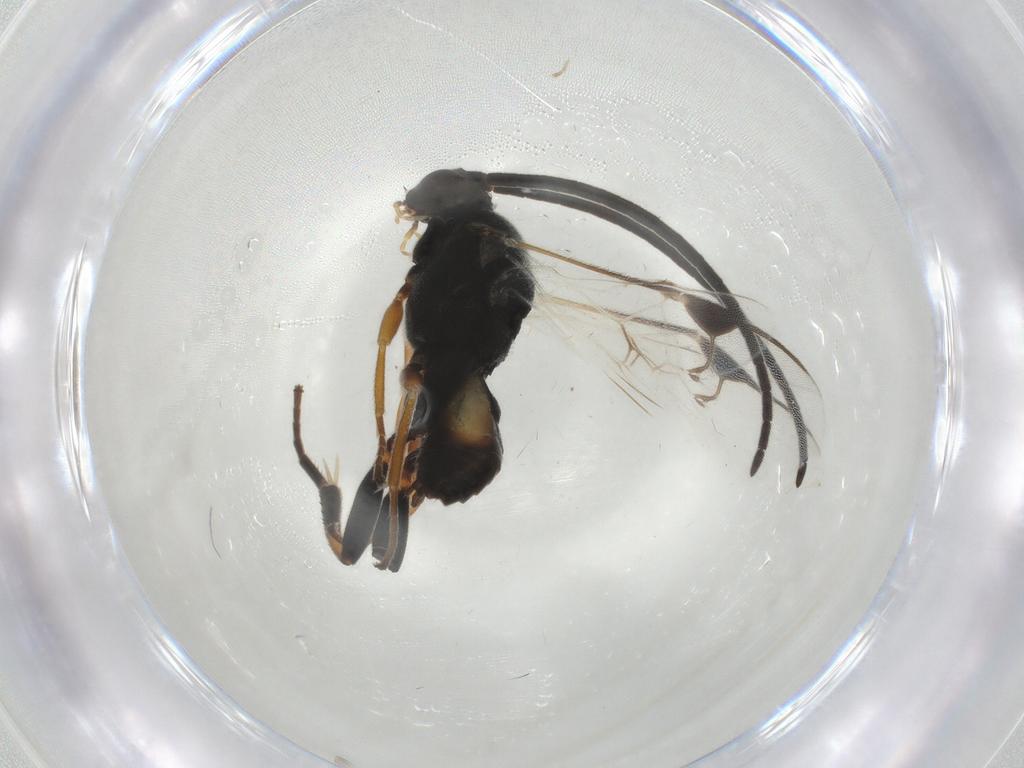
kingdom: Animalia
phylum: Arthropoda
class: Insecta
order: Hymenoptera
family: Braconidae
